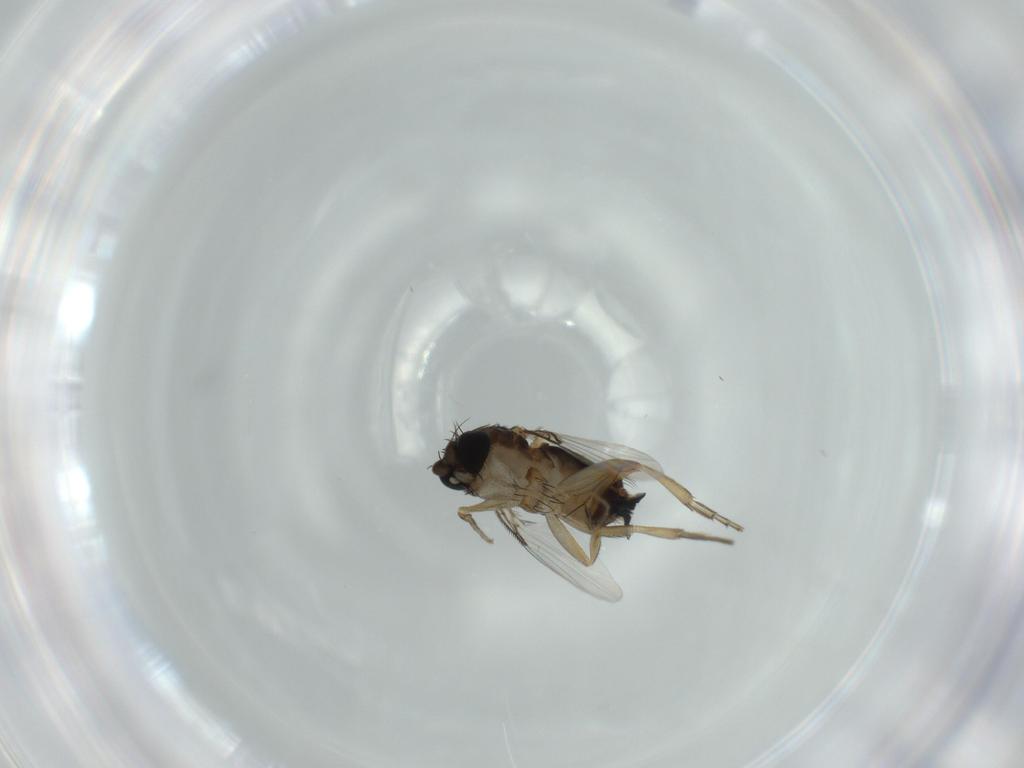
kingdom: Animalia
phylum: Arthropoda
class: Insecta
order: Diptera
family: Phoridae
